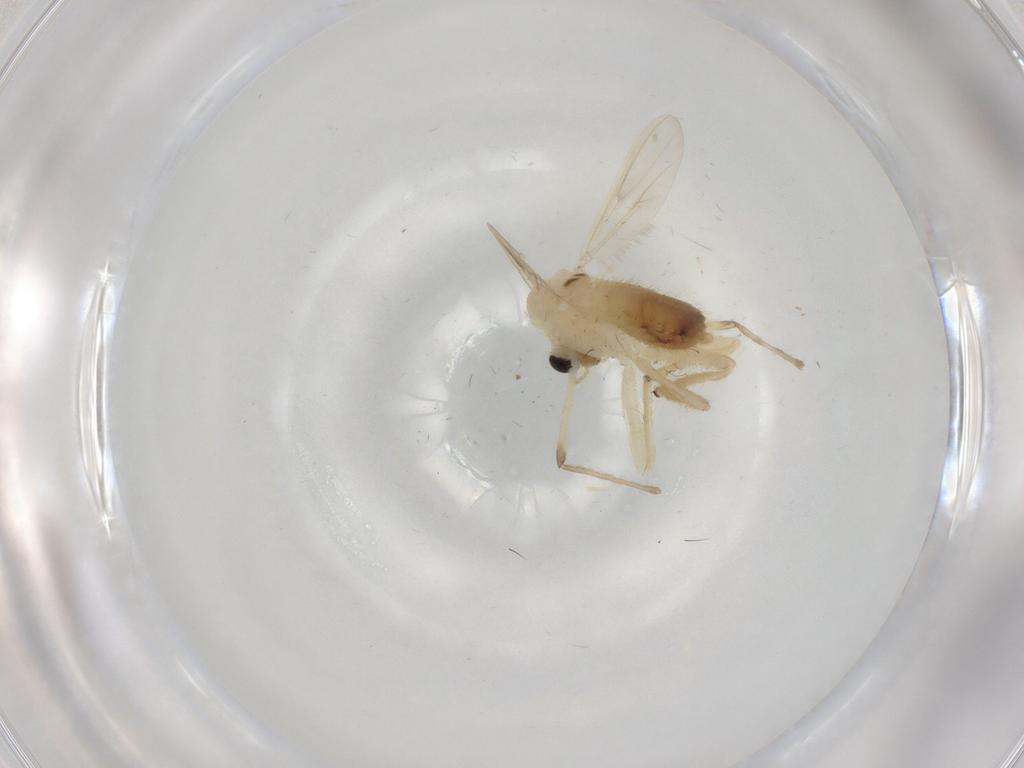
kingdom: Animalia
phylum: Arthropoda
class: Insecta
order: Diptera
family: Chironomidae
